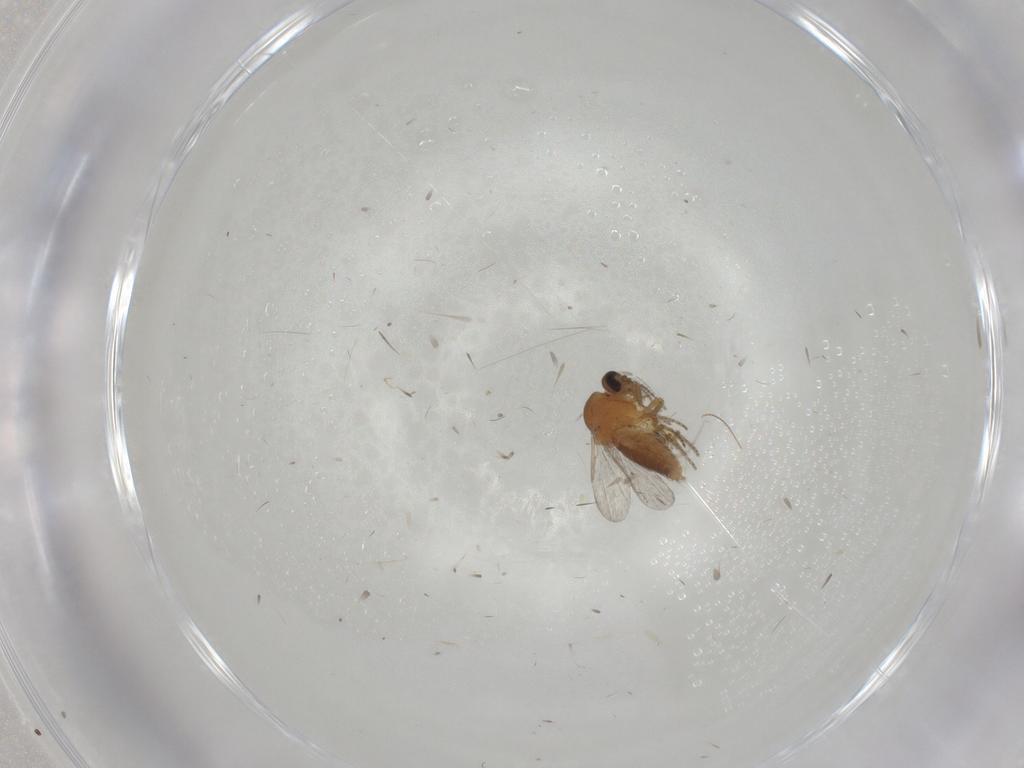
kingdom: Animalia
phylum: Arthropoda
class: Insecta
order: Diptera
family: Ceratopogonidae
